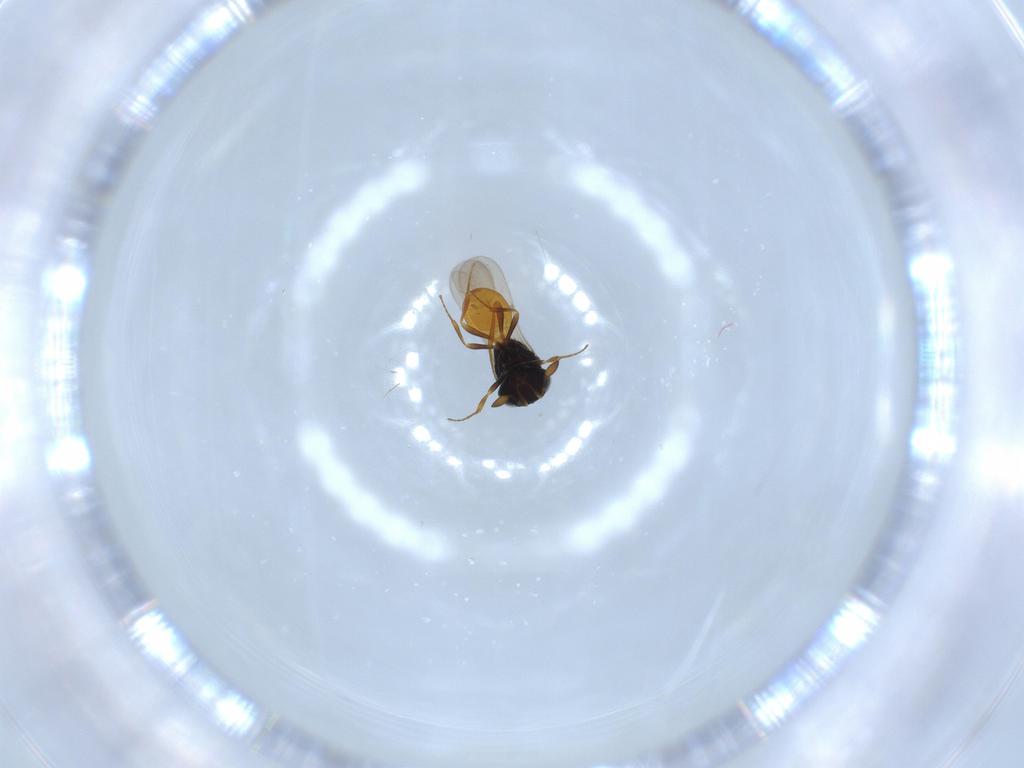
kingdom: Animalia
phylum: Arthropoda
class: Insecta
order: Hymenoptera
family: Scelionidae
